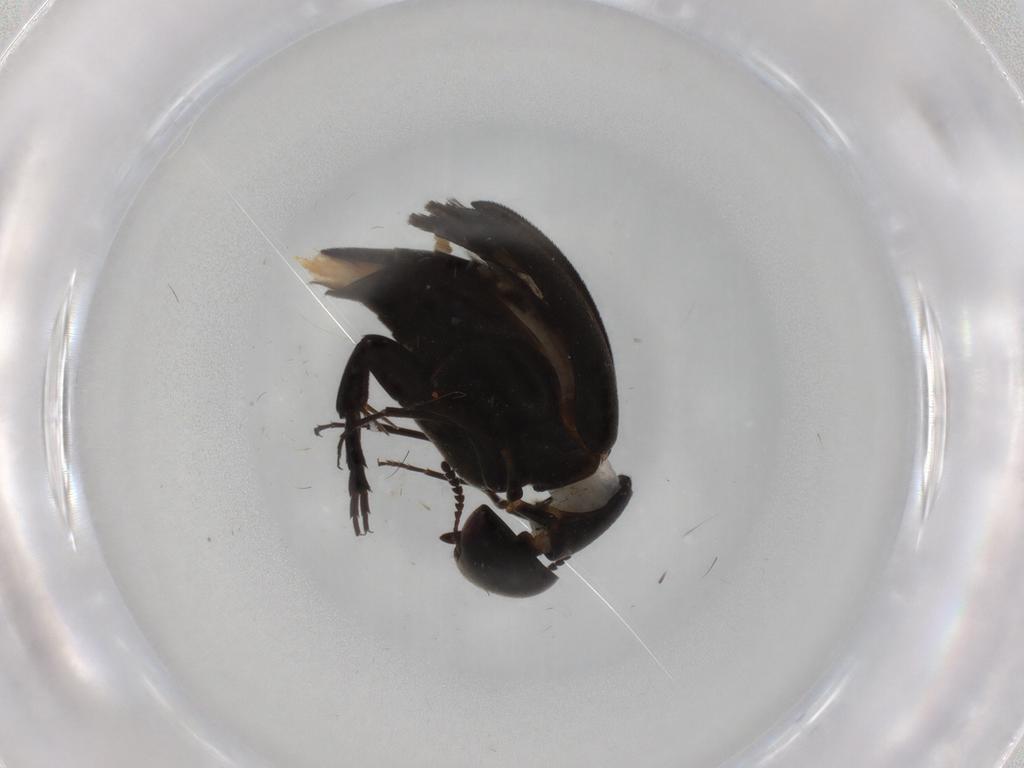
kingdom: Animalia
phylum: Arthropoda
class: Insecta
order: Coleoptera
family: Mordellidae
